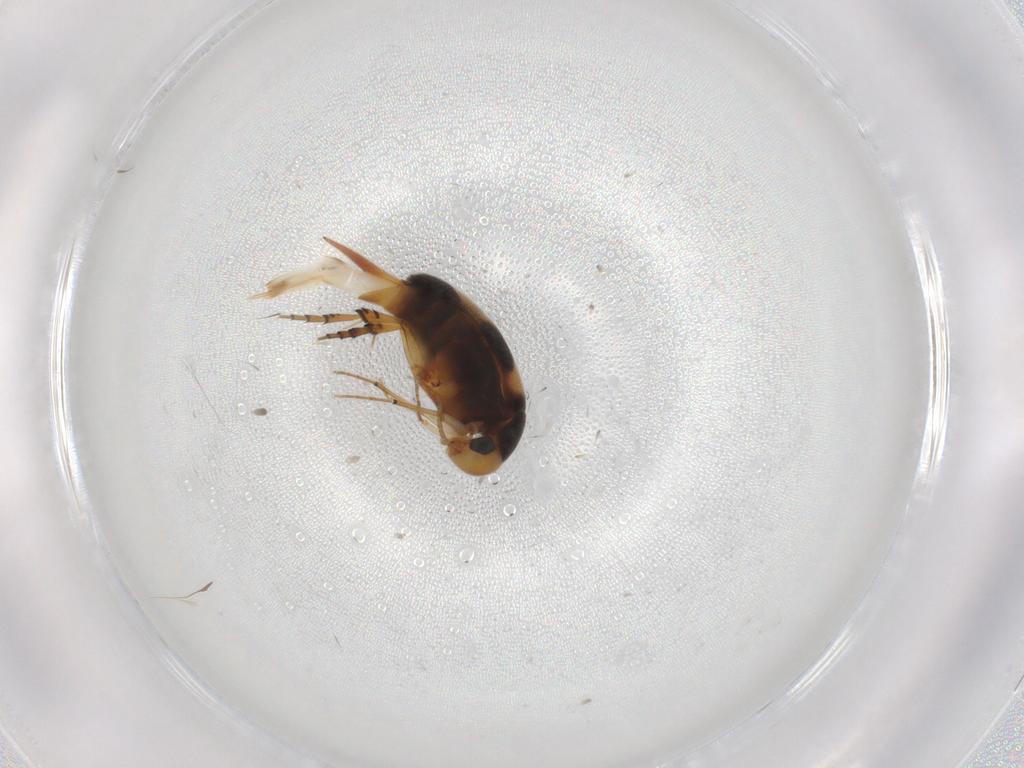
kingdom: Animalia
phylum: Arthropoda
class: Insecta
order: Coleoptera
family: Mordellidae
